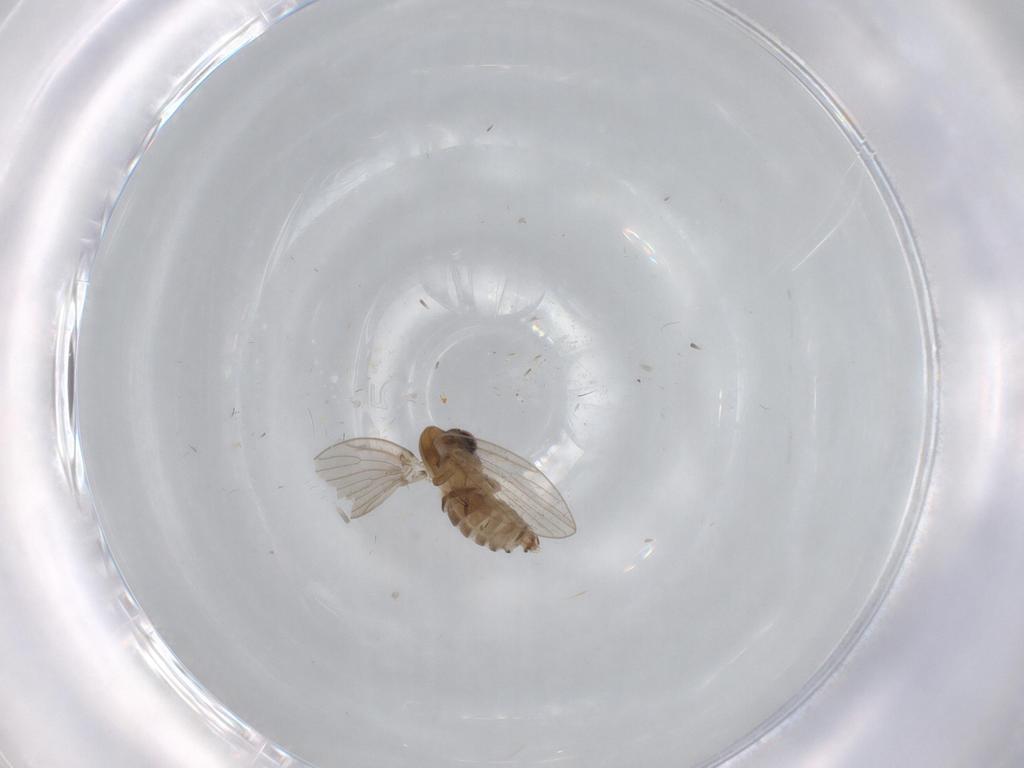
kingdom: Animalia
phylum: Arthropoda
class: Insecta
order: Diptera
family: Psychodidae
